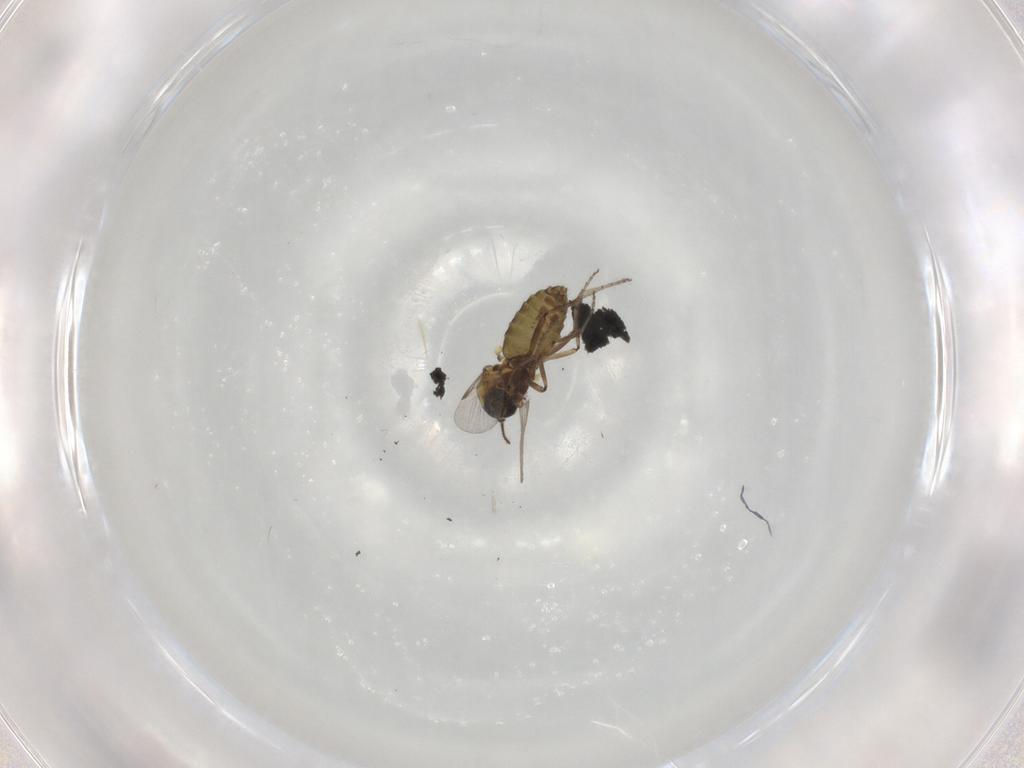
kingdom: Animalia
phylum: Arthropoda
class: Insecta
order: Diptera
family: Ceratopogonidae
